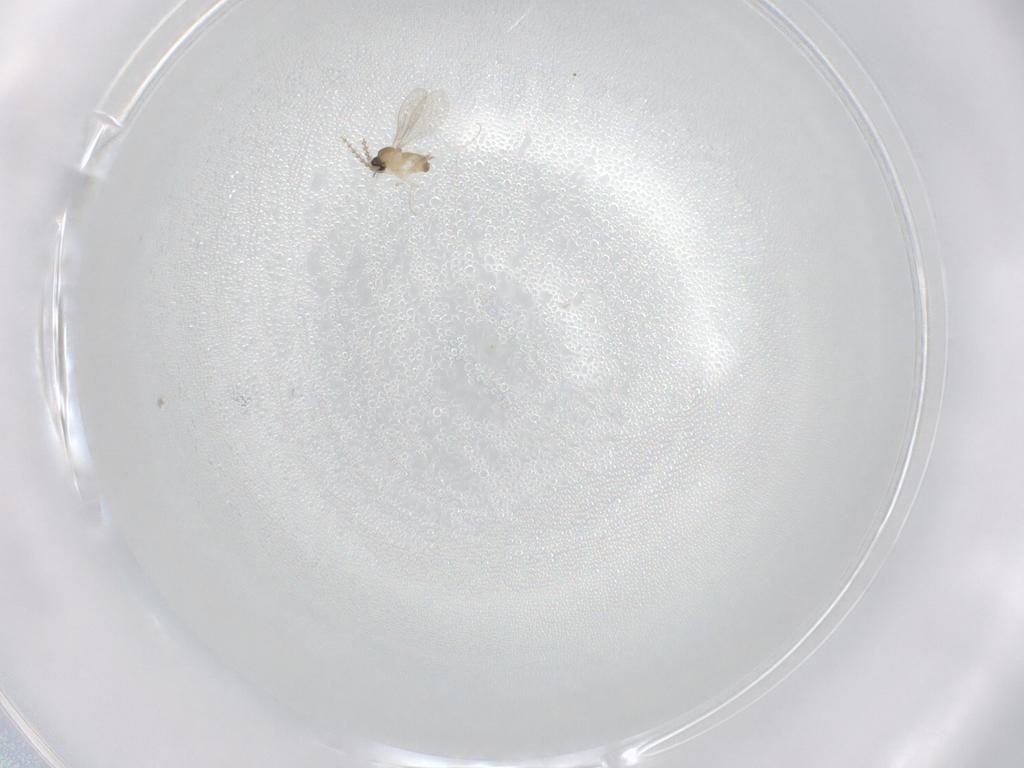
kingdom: Animalia
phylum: Arthropoda
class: Insecta
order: Diptera
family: Cecidomyiidae
